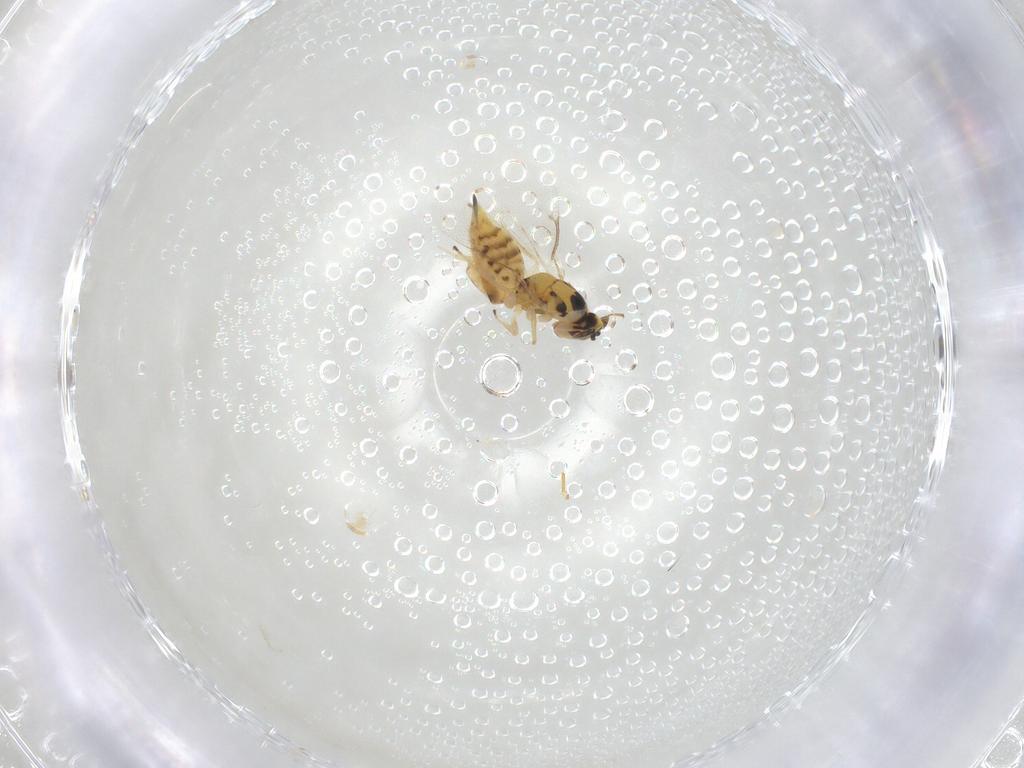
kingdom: Animalia
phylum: Arthropoda
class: Insecta
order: Hymenoptera
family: Eulophidae
